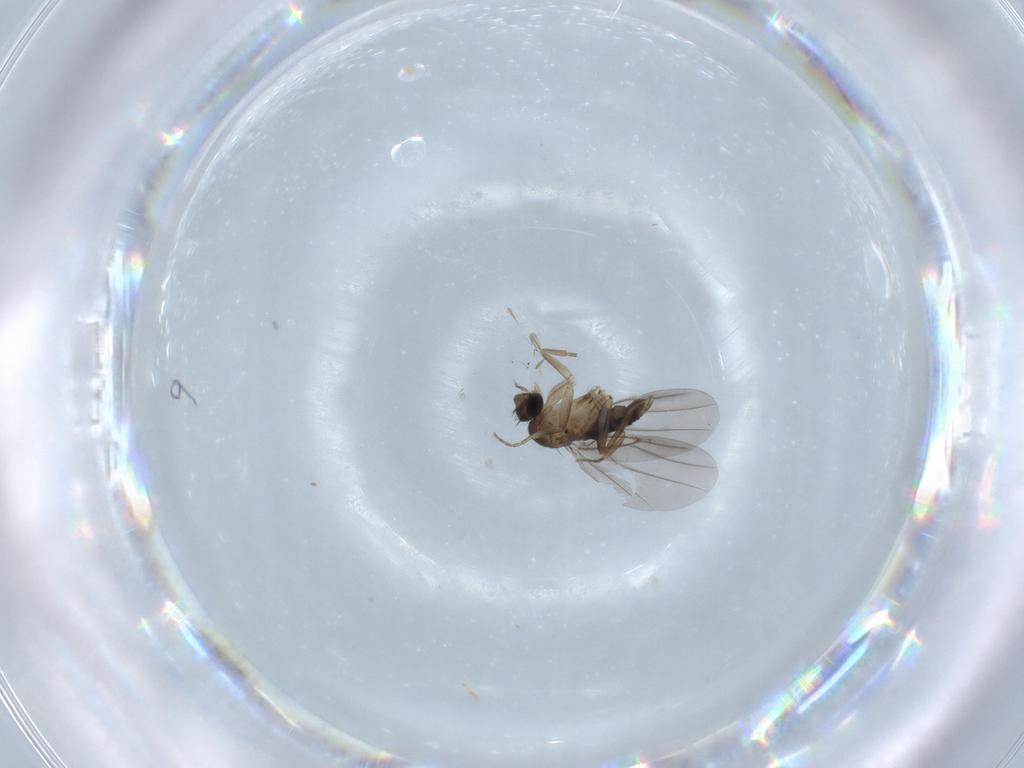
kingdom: Animalia
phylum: Arthropoda
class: Insecta
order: Diptera
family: Phoridae
